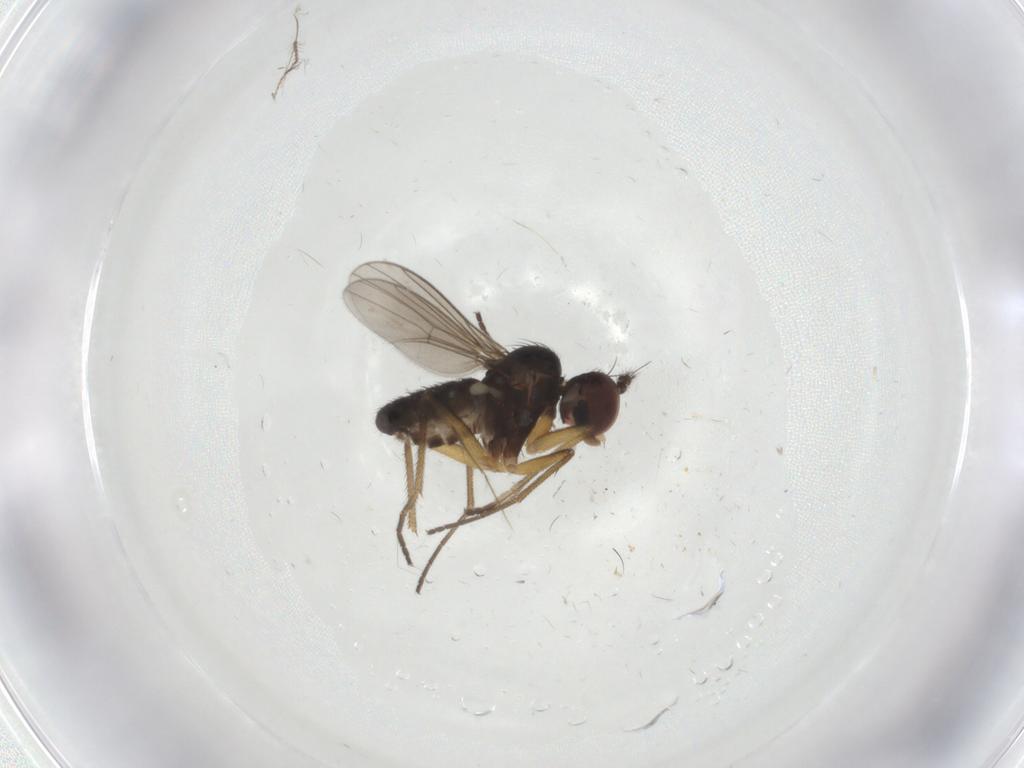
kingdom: Animalia
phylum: Arthropoda
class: Insecta
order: Diptera
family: Dolichopodidae
